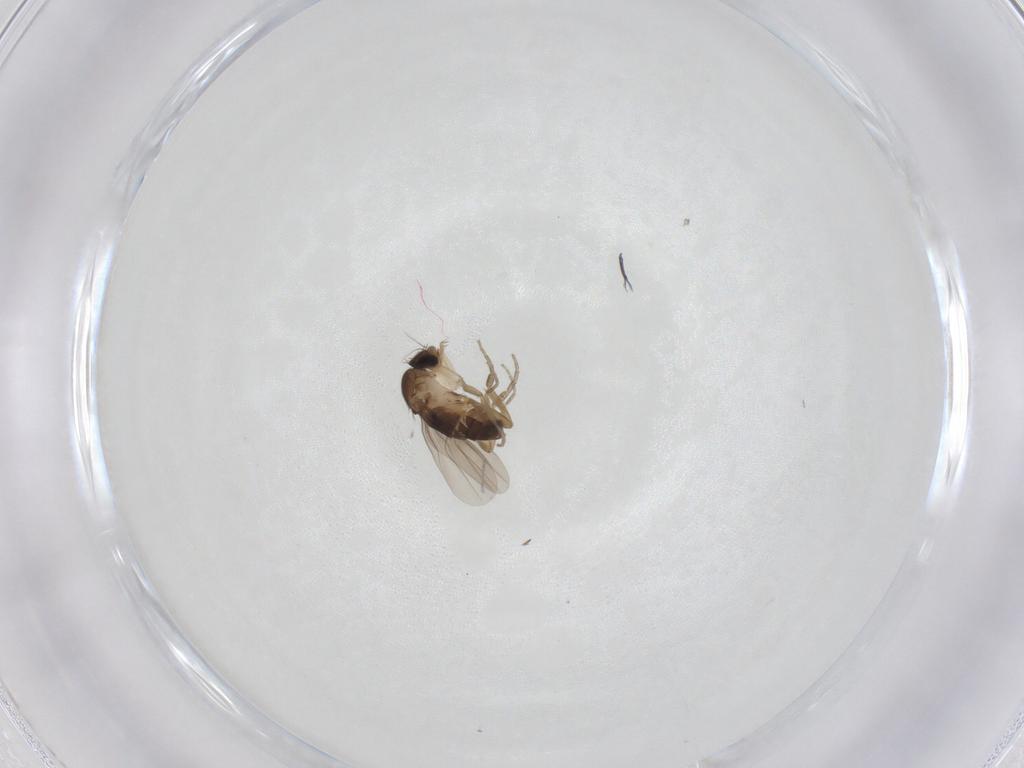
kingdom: Animalia
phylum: Arthropoda
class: Insecta
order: Diptera
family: Phoridae
